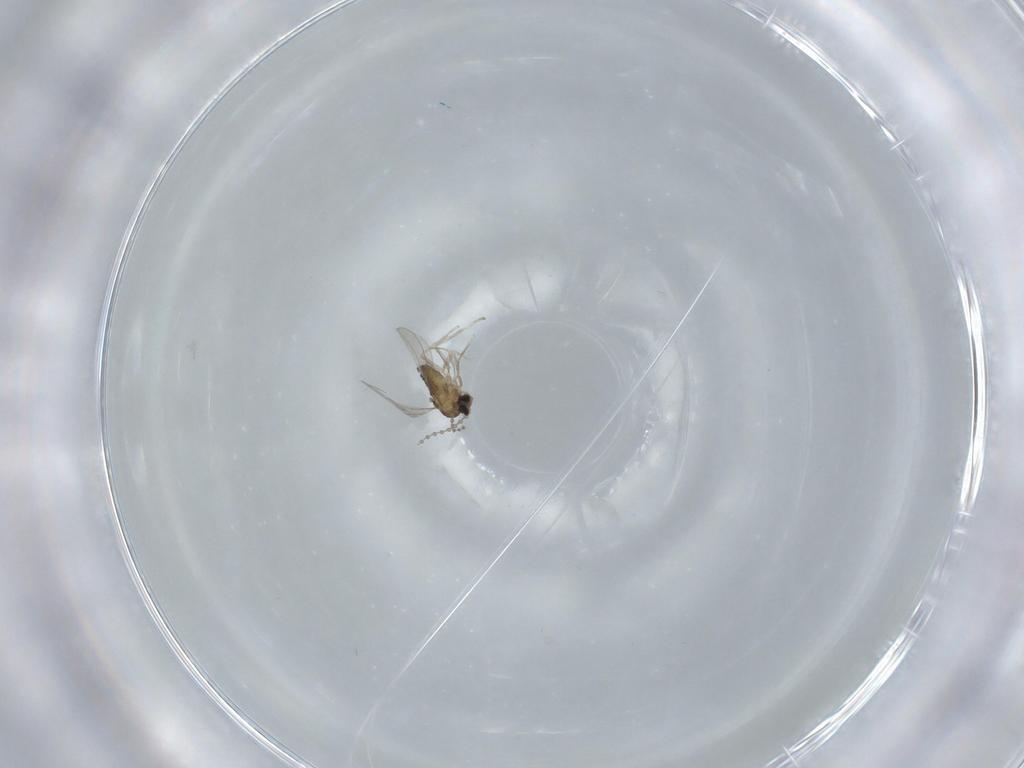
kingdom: Animalia
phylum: Arthropoda
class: Insecta
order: Diptera
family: Cecidomyiidae
